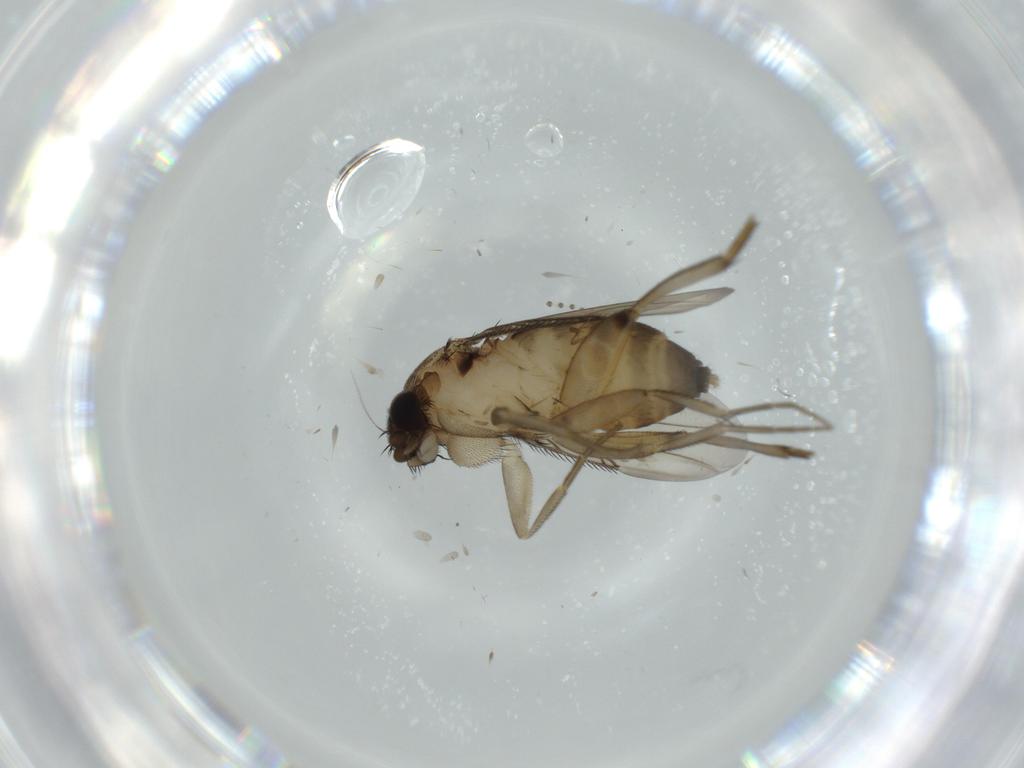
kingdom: Animalia
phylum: Arthropoda
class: Insecta
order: Diptera
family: Phoridae
